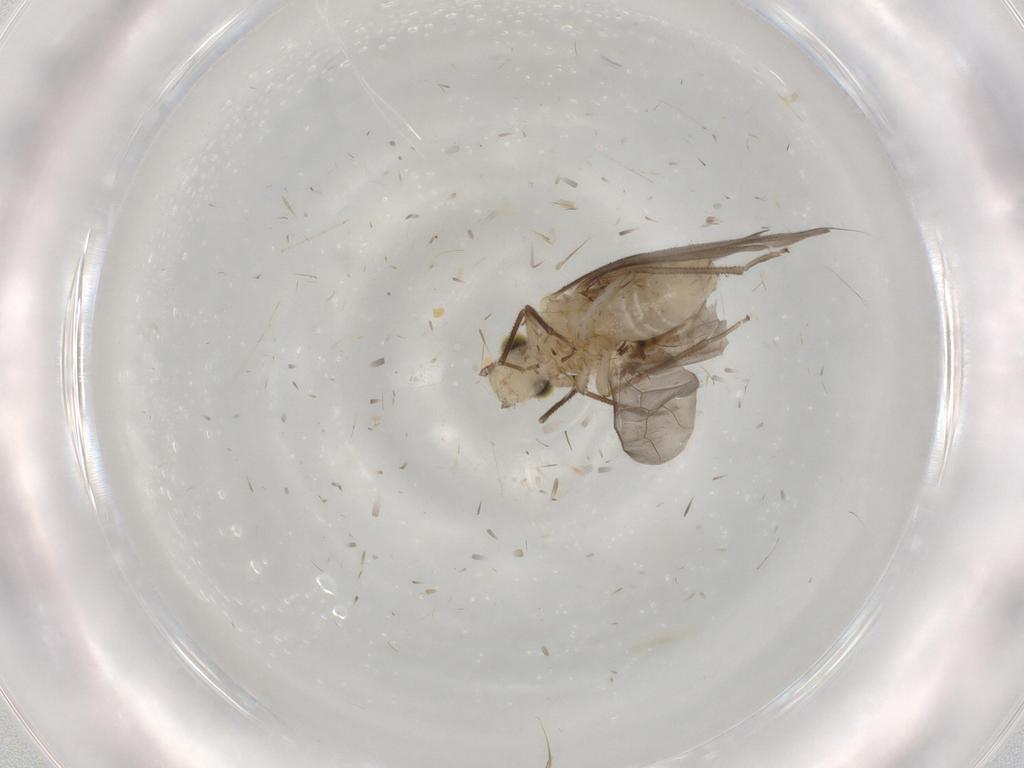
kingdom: Animalia
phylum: Arthropoda
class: Insecta
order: Psocodea
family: Caeciliusidae
